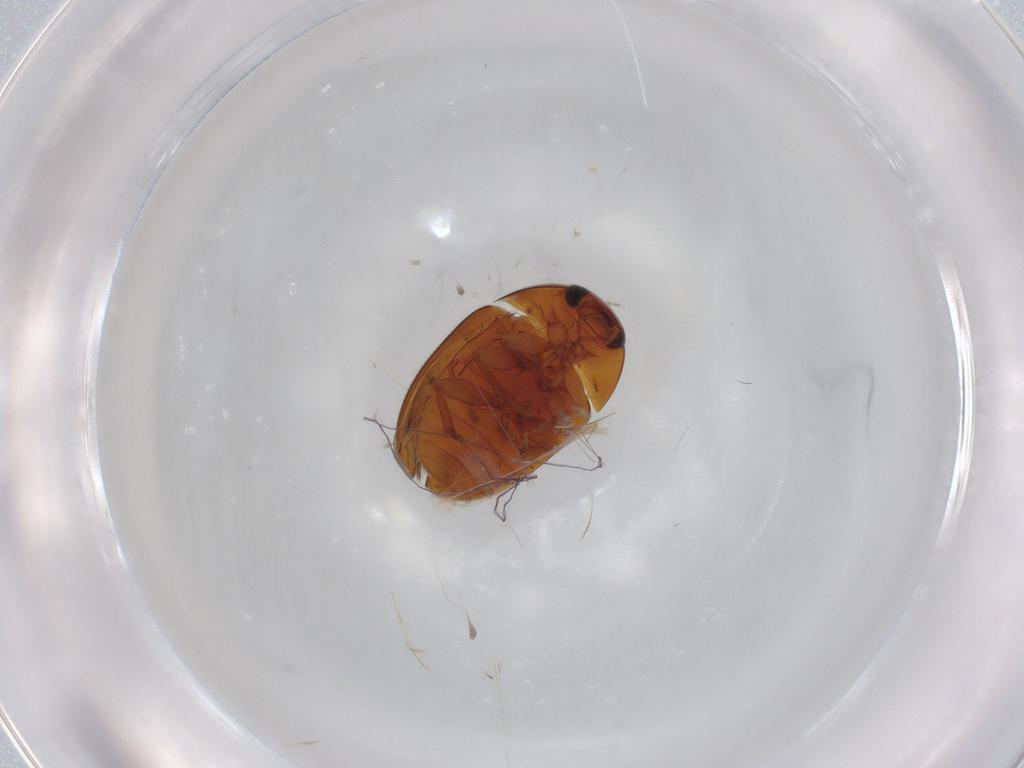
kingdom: Animalia
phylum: Arthropoda
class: Insecta
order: Coleoptera
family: Phalacridae
